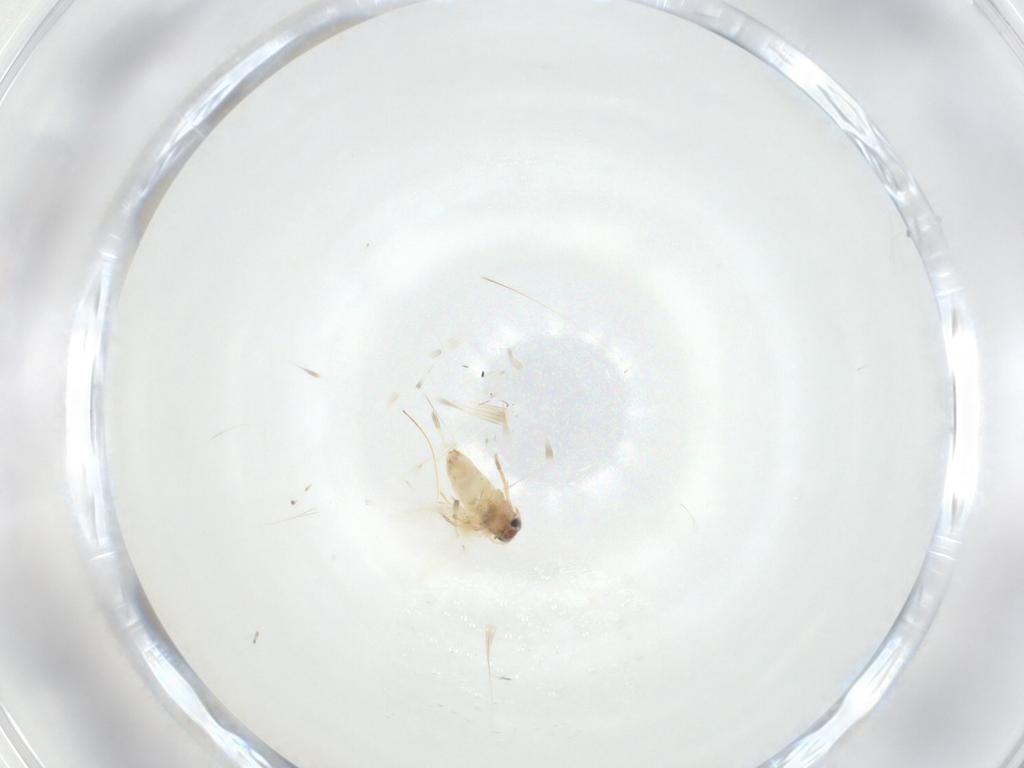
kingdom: Animalia
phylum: Arthropoda
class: Insecta
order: Lepidoptera
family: Crambidae
